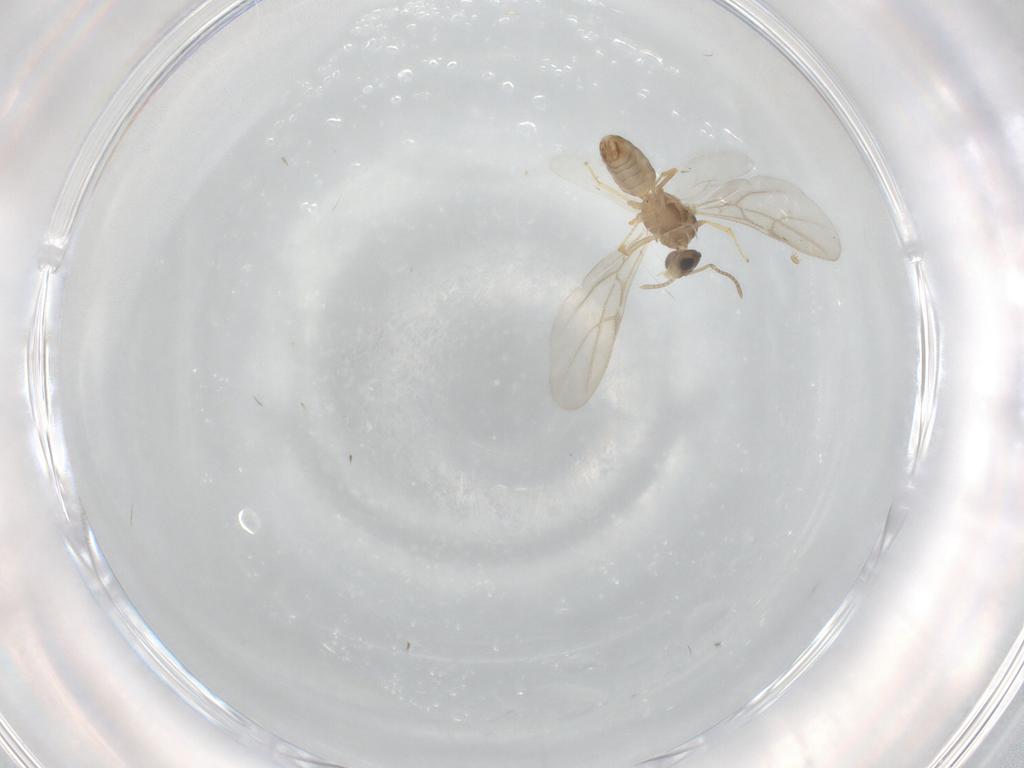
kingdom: Animalia
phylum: Arthropoda
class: Insecta
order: Hymenoptera
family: Formicidae
